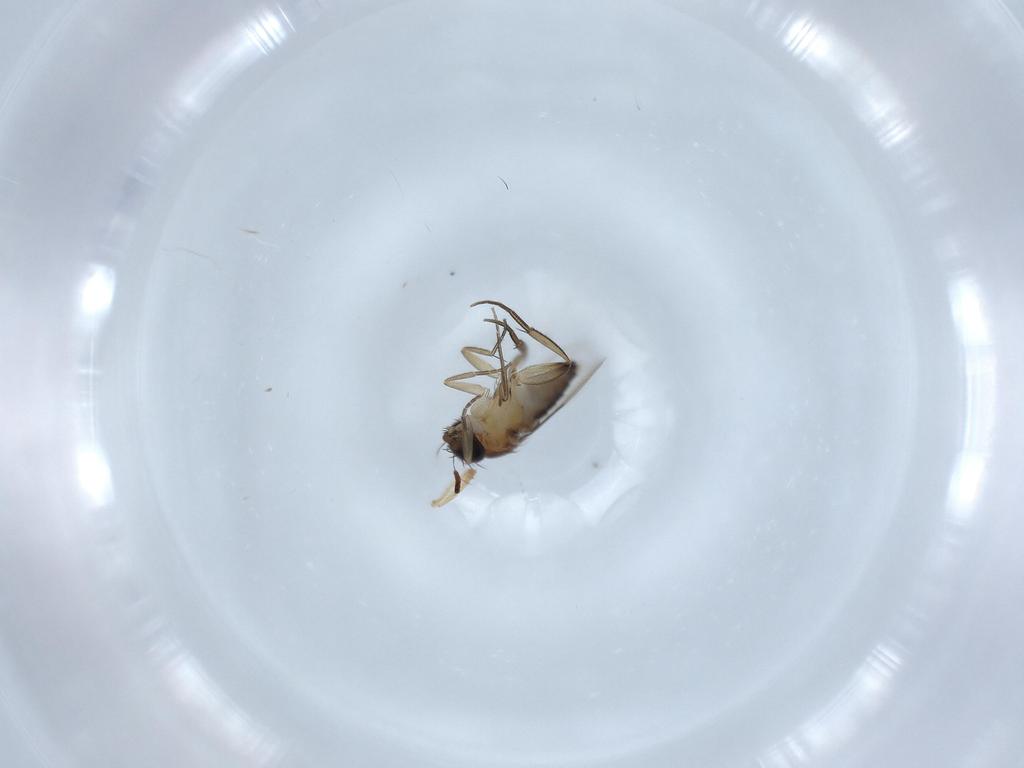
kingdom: Animalia
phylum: Arthropoda
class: Insecta
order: Diptera
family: Phoridae
